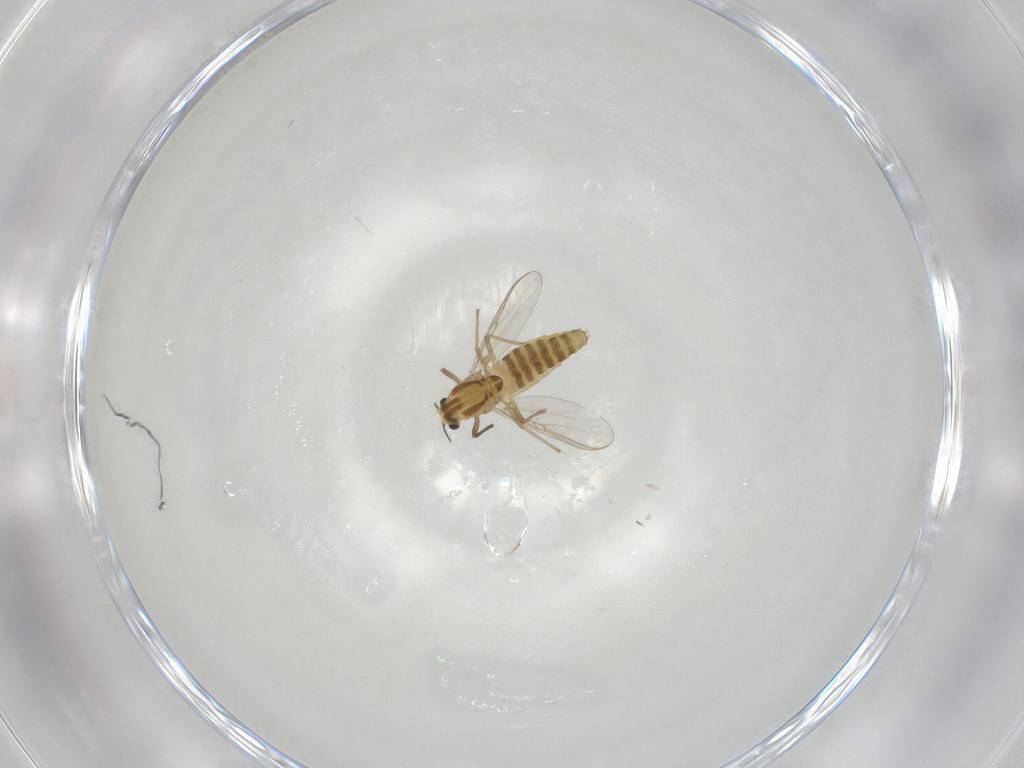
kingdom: Animalia
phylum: Arthropoda
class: Insecta
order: Diptera
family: Chironomidae
